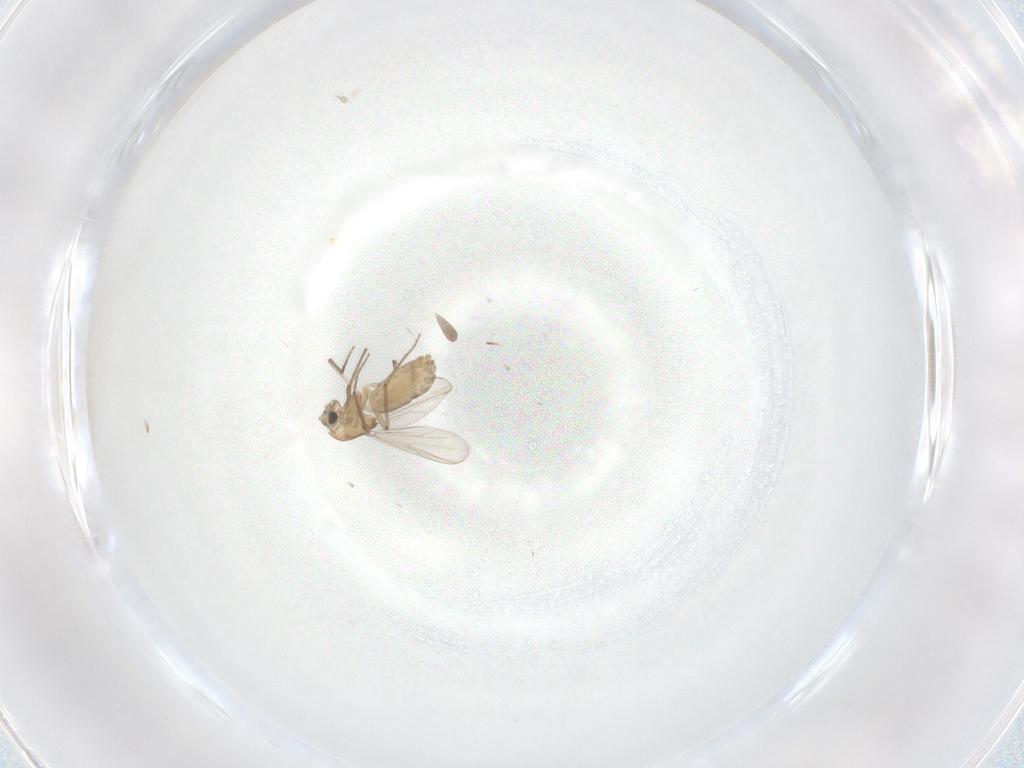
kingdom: Animalia
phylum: Arthropoda
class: Insecta
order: Diptera
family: Chironomidae
